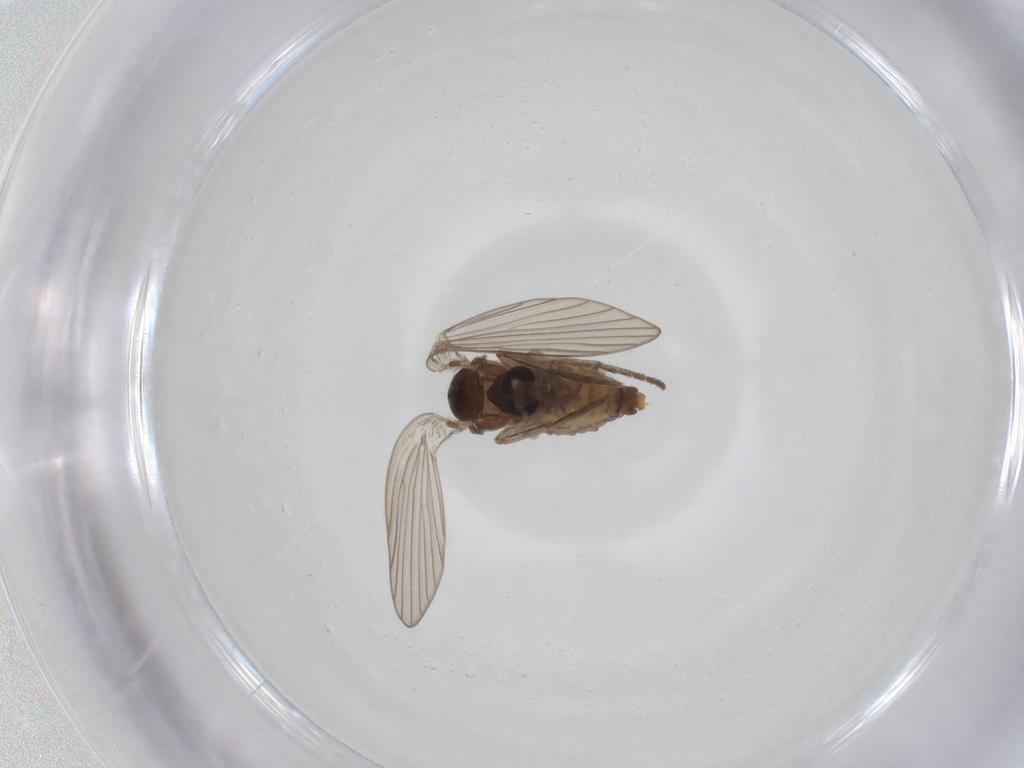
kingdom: Animalia
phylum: Arthropoda
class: Insecta
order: Diptera
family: Psychodidae
